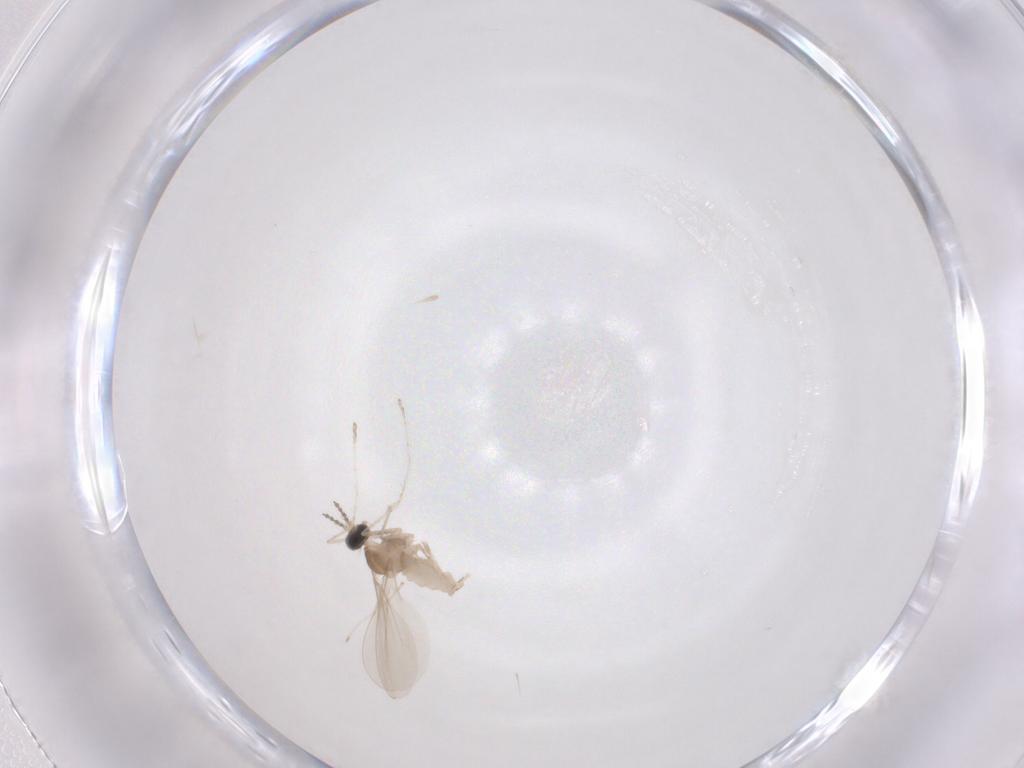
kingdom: Animalia
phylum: Arthropoda
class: Insecta
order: Diptera
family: Cecidomyiidae
